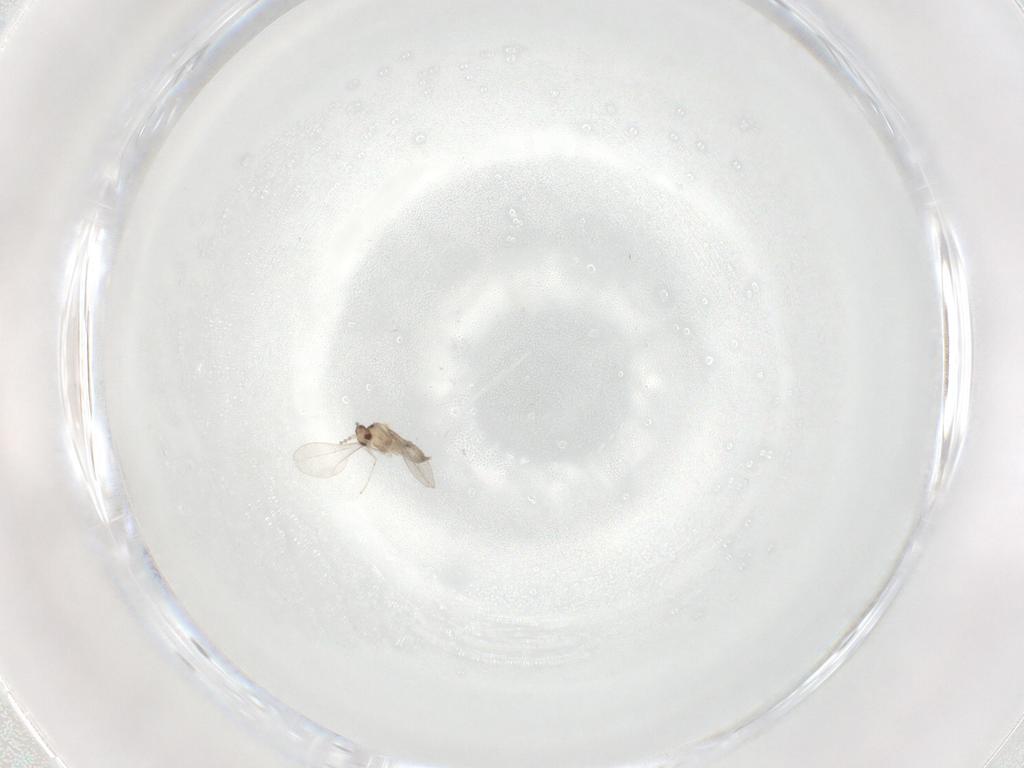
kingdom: Animalia
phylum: Arthropoda
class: Insecta
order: Diptera
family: Cecidomyiidae
